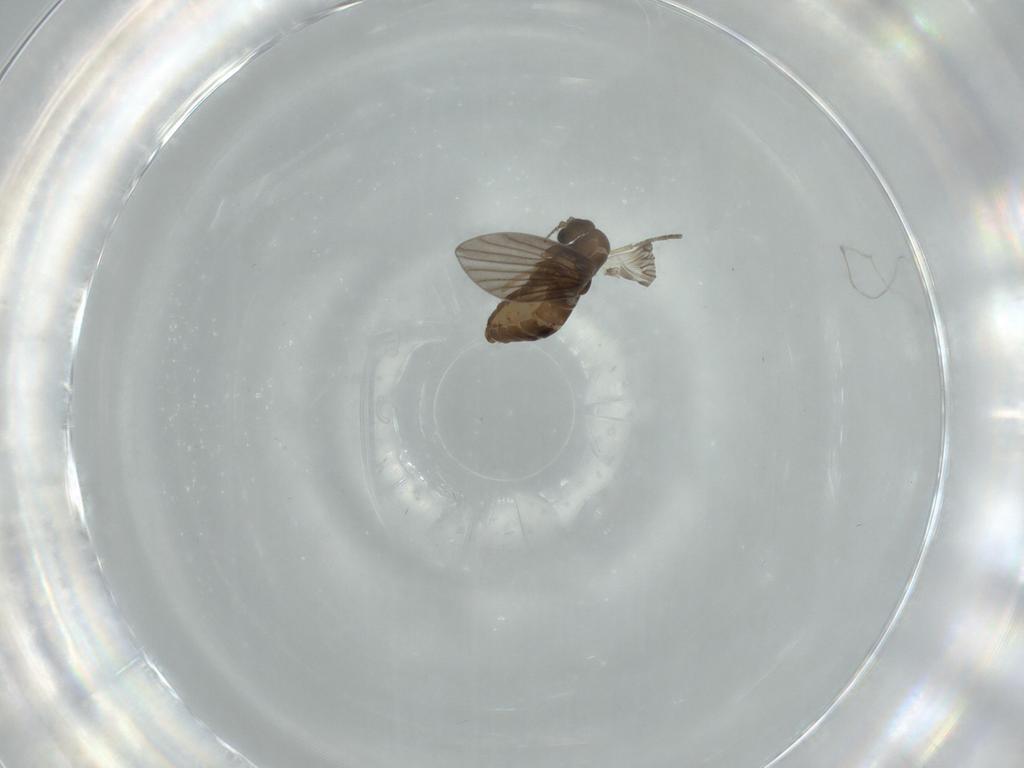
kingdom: Animalia
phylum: Arthropoda
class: Insecta
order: Diptera
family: Psychodidae
